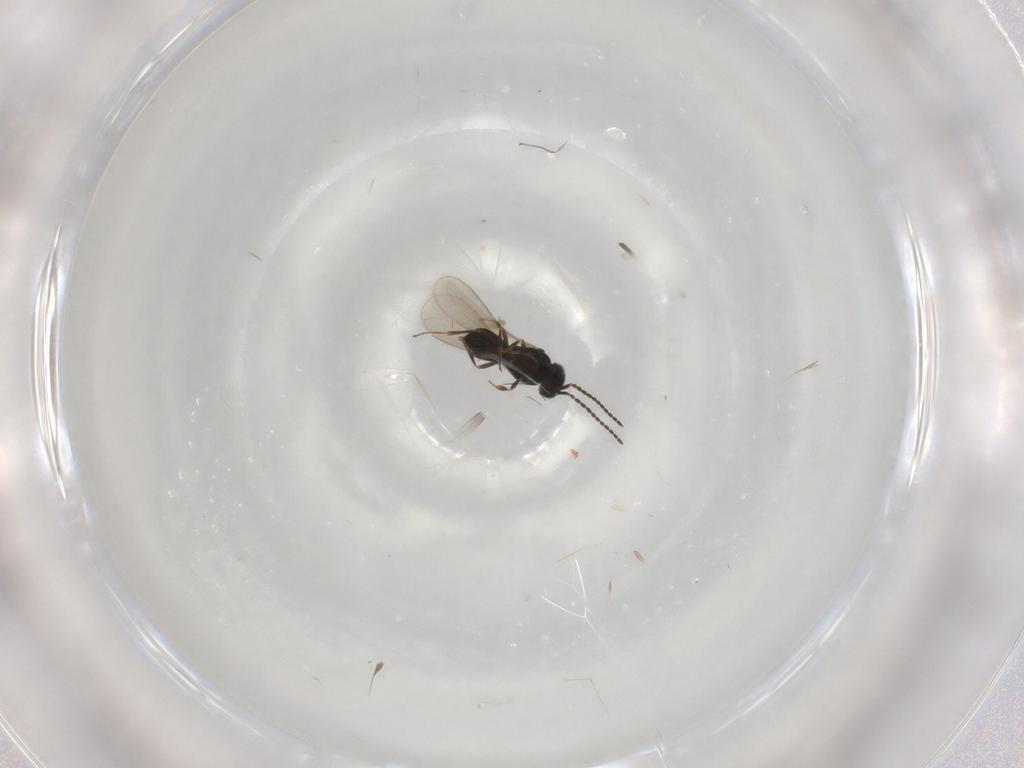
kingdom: Animalia
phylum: Arthropoda
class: Insecta
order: Hymenoptera
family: Scelionidae
